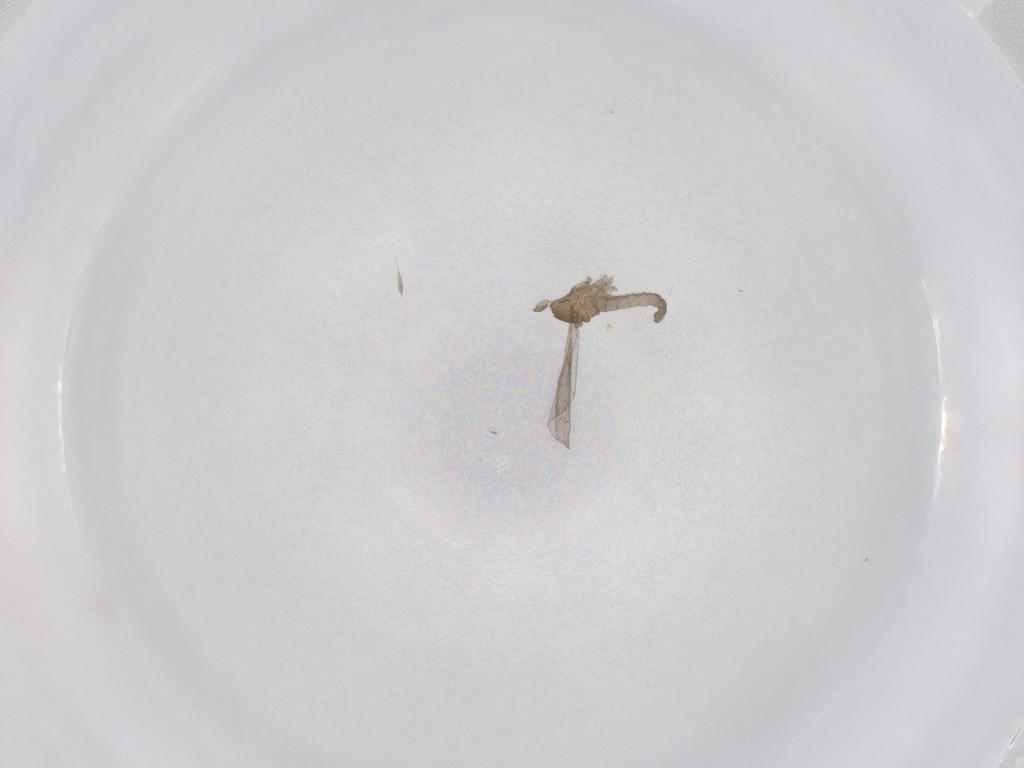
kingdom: Animalia
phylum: Arthropoda
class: Insecta
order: Diptera
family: Cecidomyiidae
